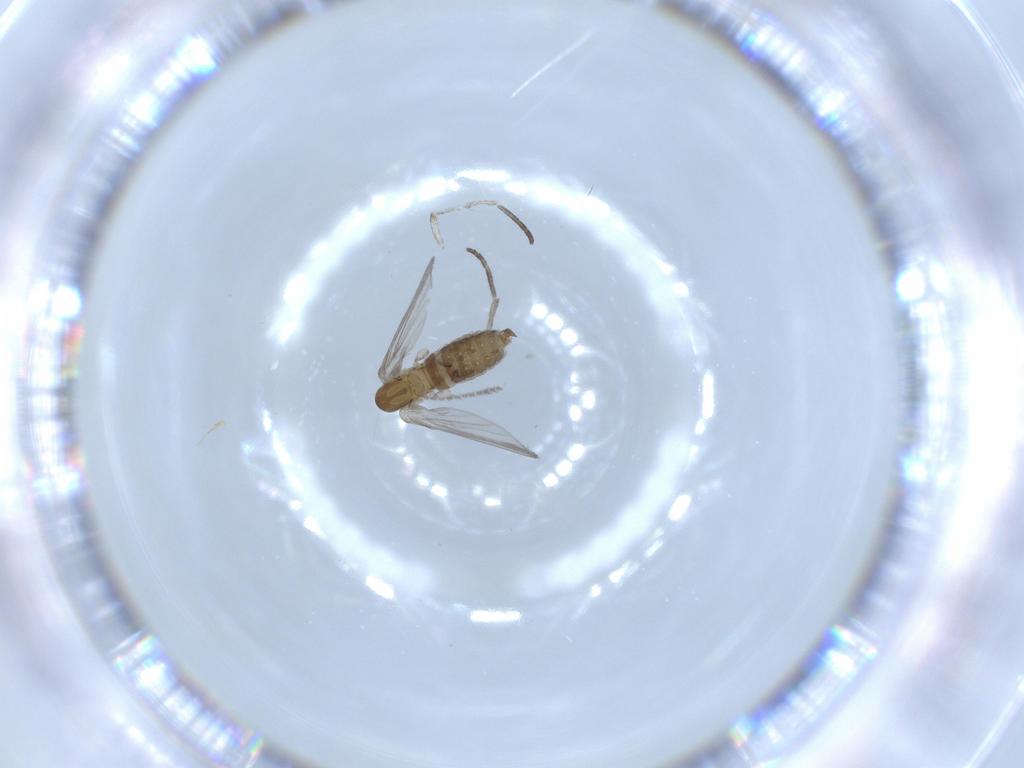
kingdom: Animalia
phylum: Arthropoda
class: Insecta
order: Diptera
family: Psychodidae
